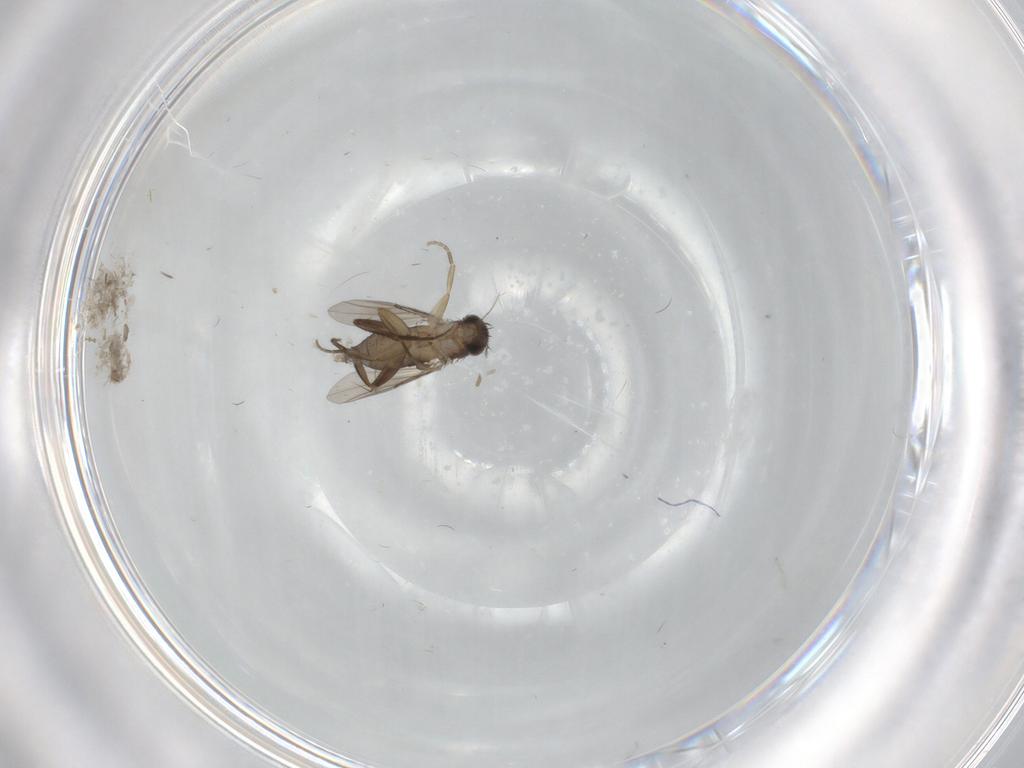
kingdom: Animalia
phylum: Arthropoda
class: Insecta
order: Diptera
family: Phoridae
